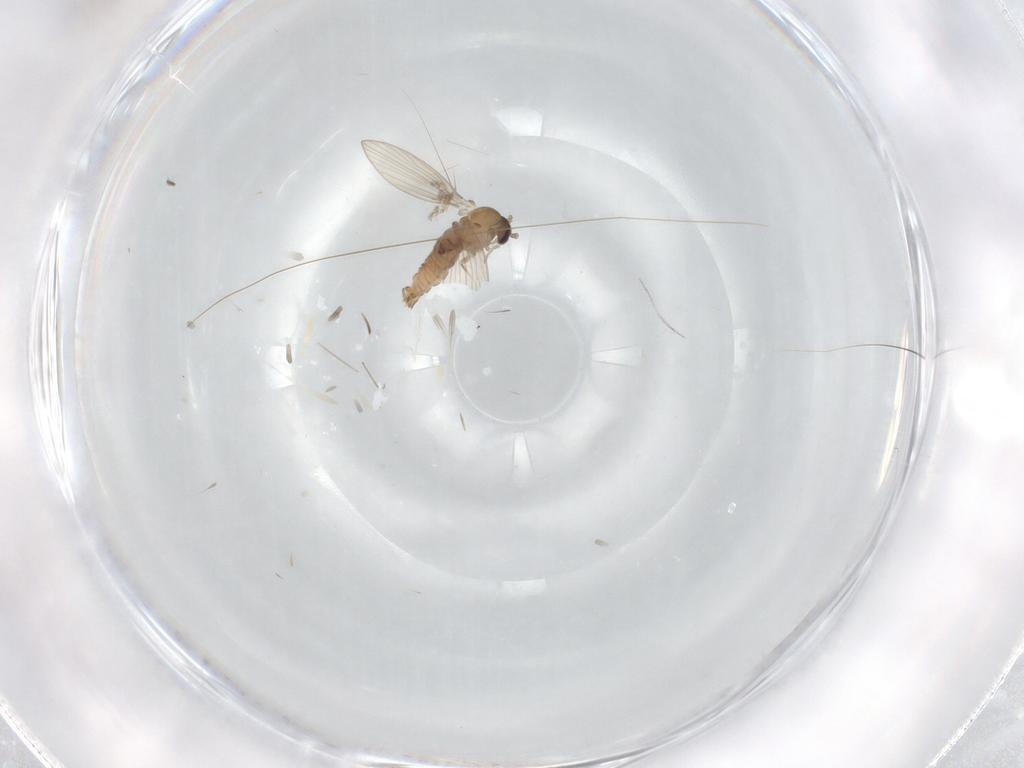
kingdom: Animalia
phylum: Arthropoda
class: Insecta
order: Diptera
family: Psychodidae
